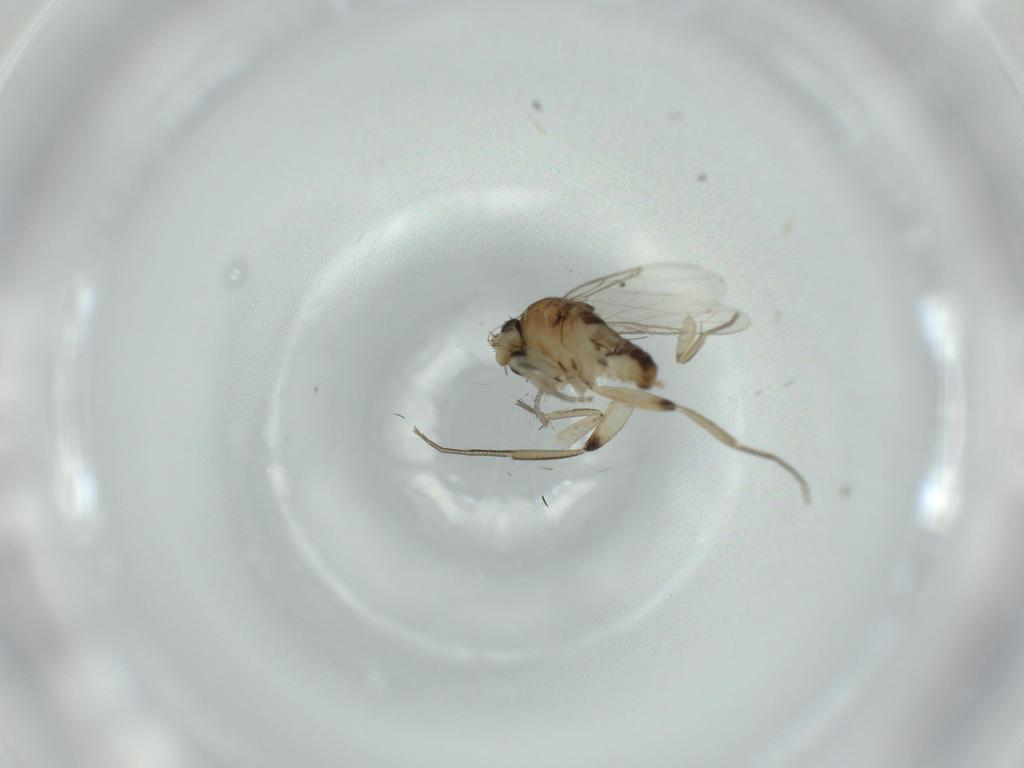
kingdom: Animalia
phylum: Arthropoda
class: Insecta
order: Diptera
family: Phoridae
